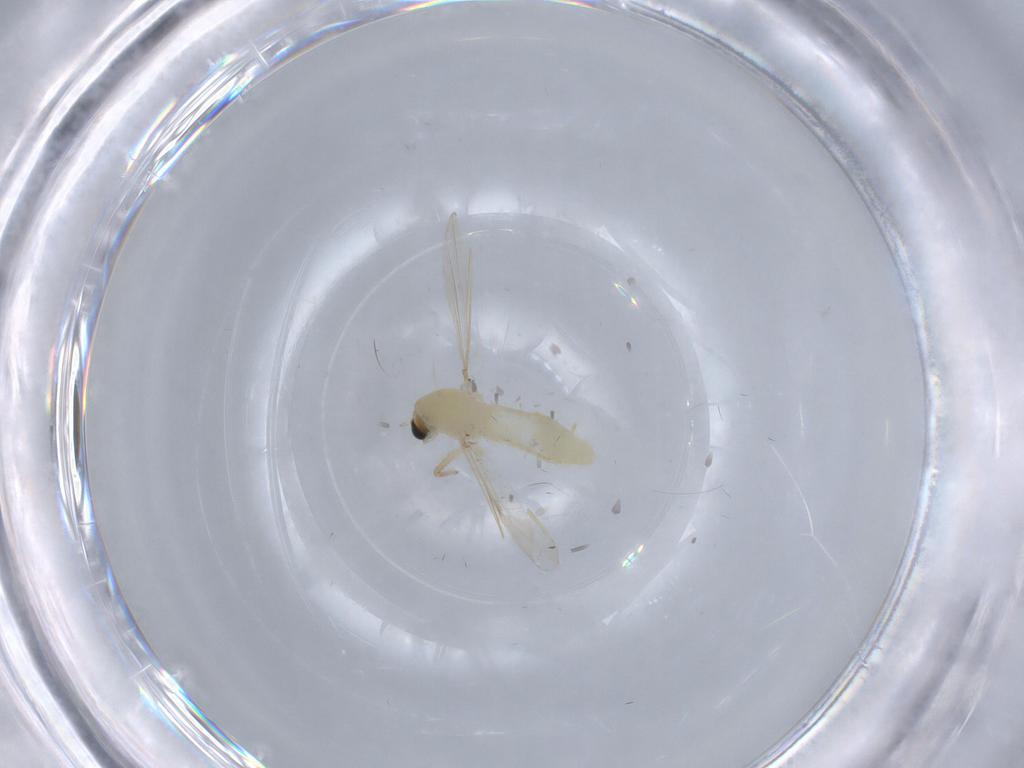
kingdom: Animalia
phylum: Arthropoda
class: Insecta
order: Diptera
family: Chironomidae
